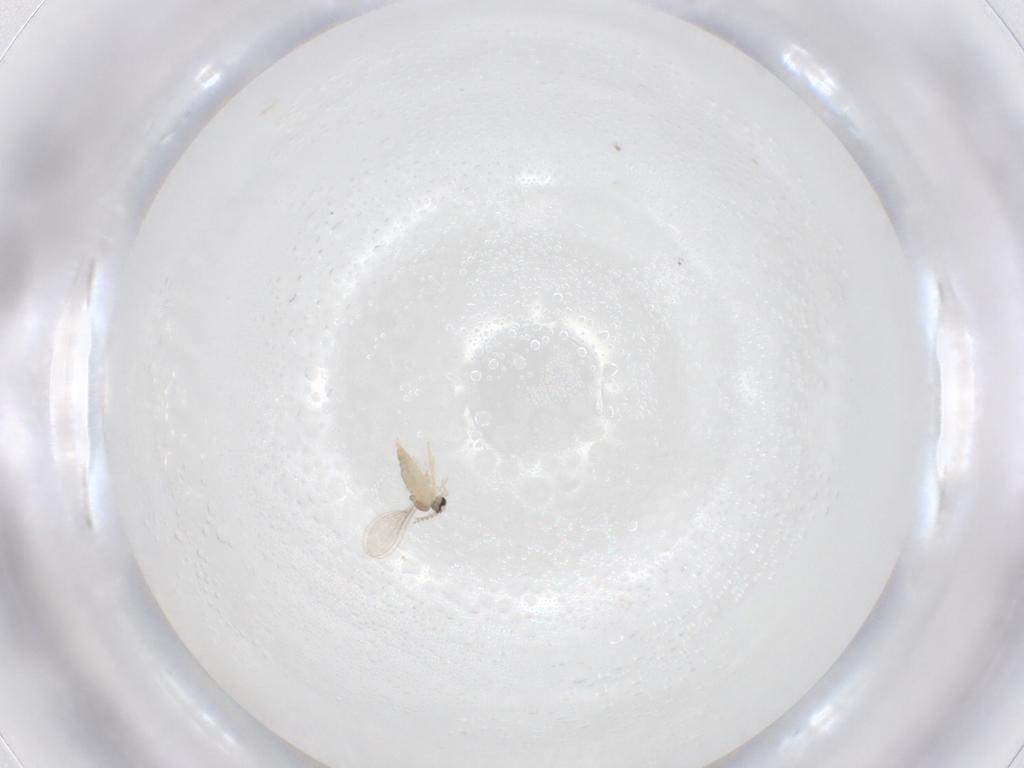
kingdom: Animalia
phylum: Arthropoda
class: Insecta
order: Diptera
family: Cecidomyiidae
